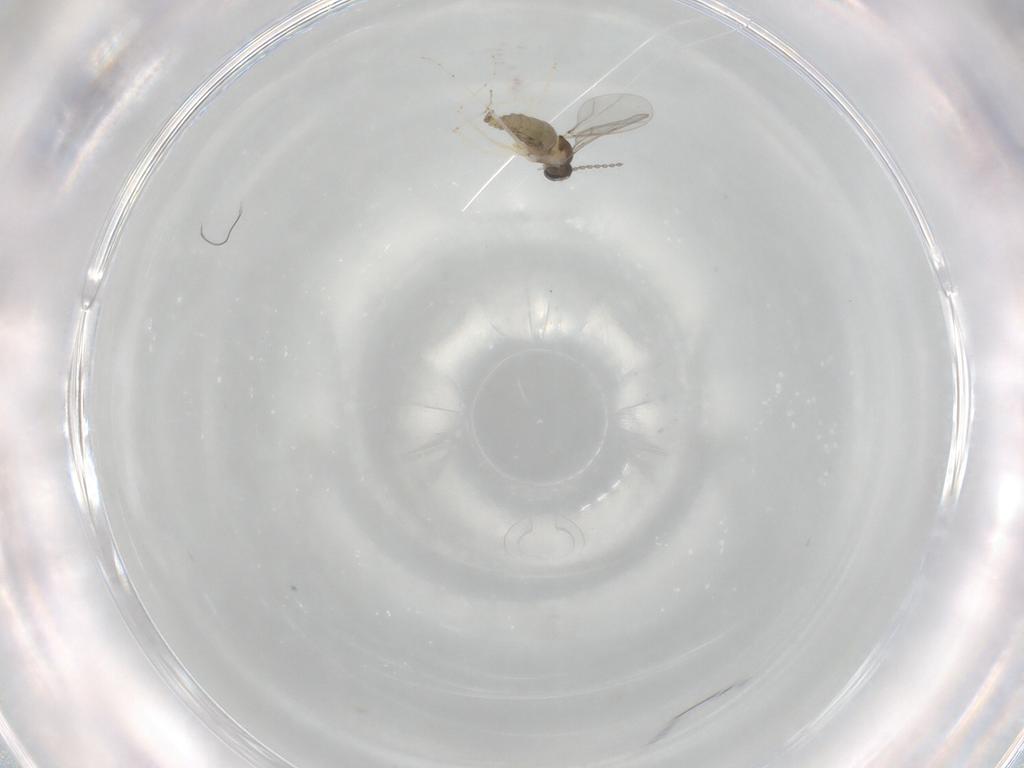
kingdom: Animalia
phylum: Arthropoda
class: Insecta
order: Diptera
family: Cecidomyiidae
